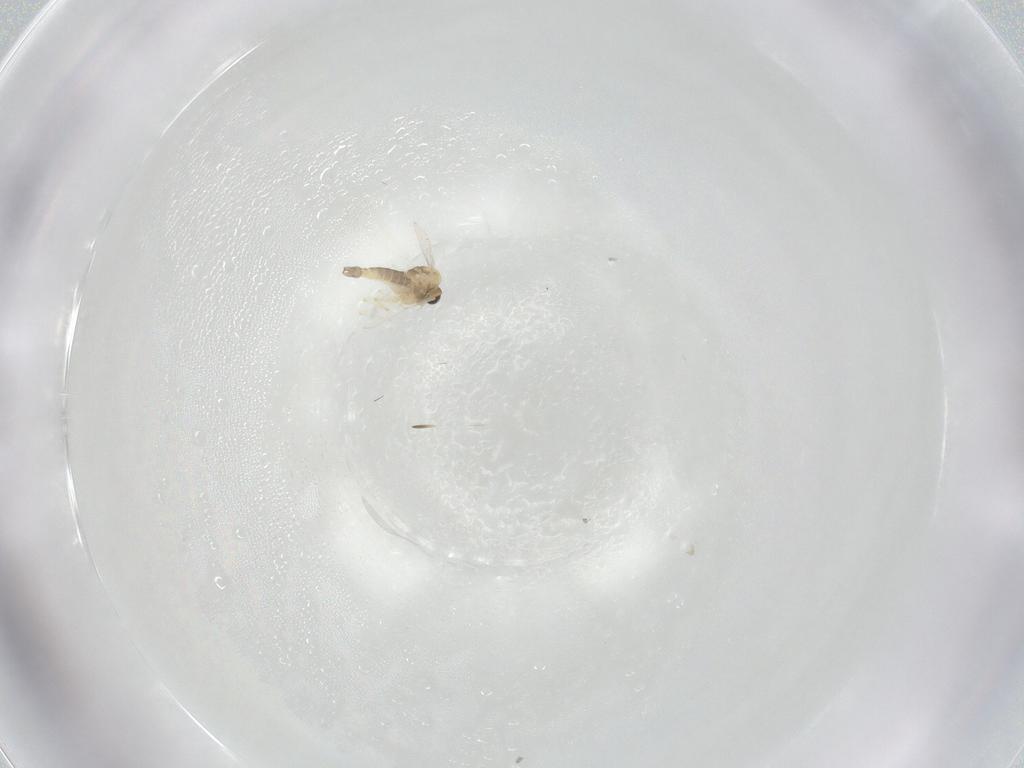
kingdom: Animalia
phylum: Arthropoda
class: Insecta
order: Diptera
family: Chironomidae
